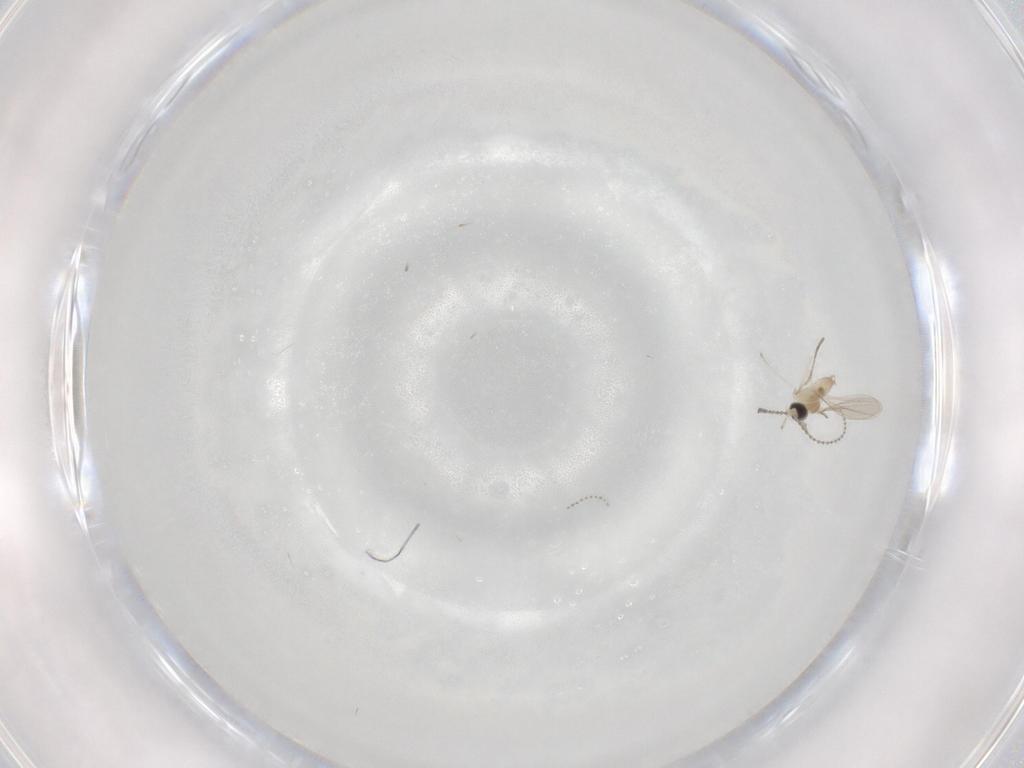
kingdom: Animalia
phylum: Arthropoda
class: Insecta
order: Diptera
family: Cecidomyiidae
